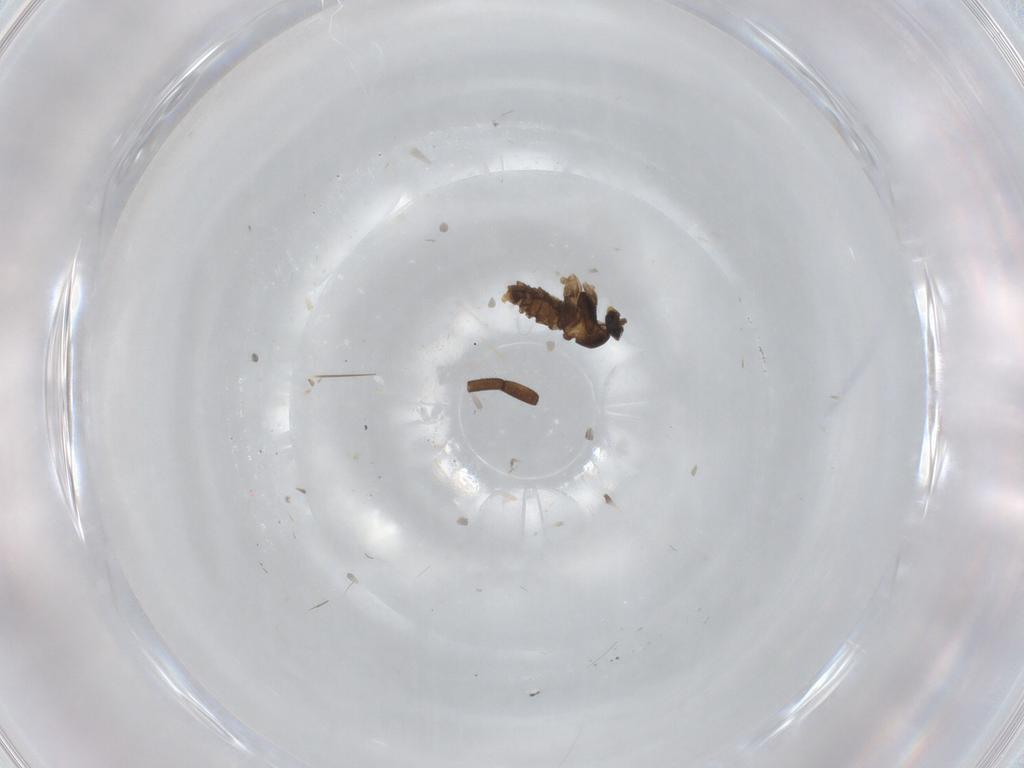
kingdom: Animalia
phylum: Arthropoda
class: Insecta
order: Diptera
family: Cecidomyiidae
